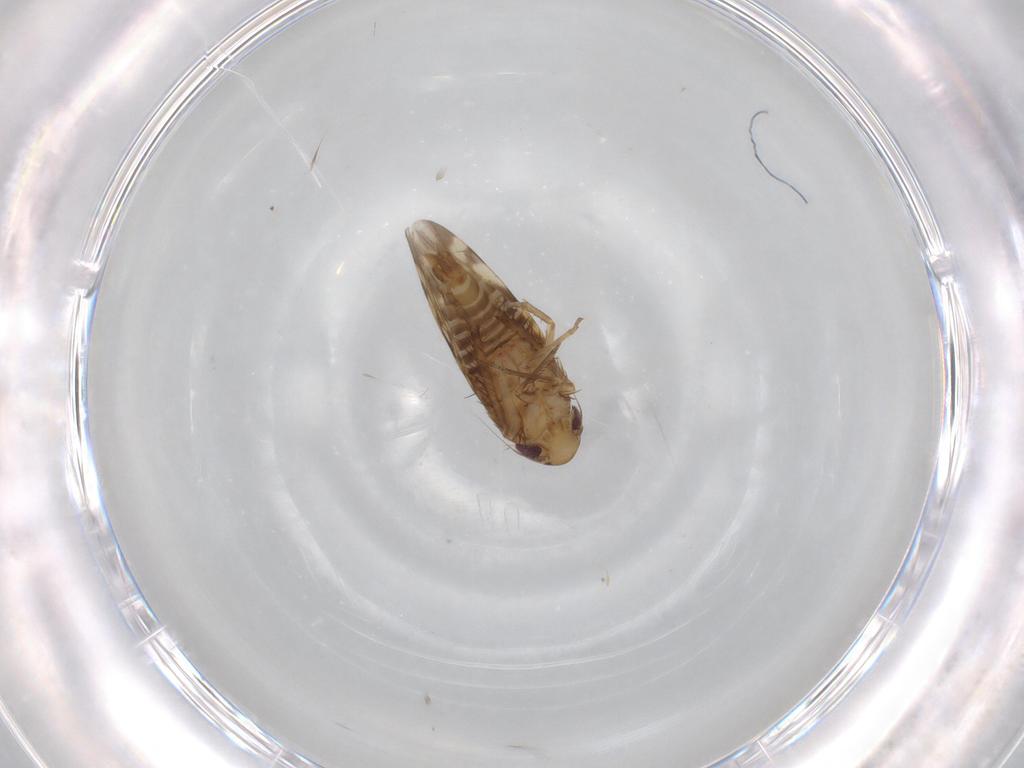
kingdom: Animalia
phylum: Arthropoda
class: Insecta
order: Hemiptera
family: Cicadellidae
